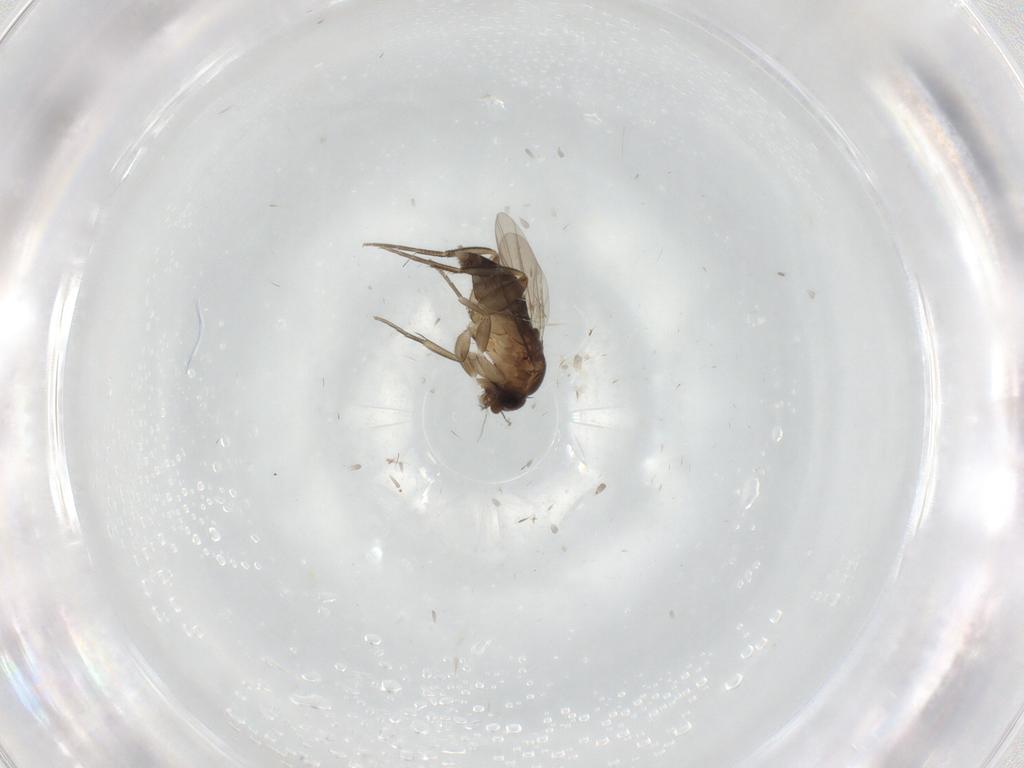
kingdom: Animalia
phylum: Arthropoda
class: Insecta
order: Diptera
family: Phoridae
